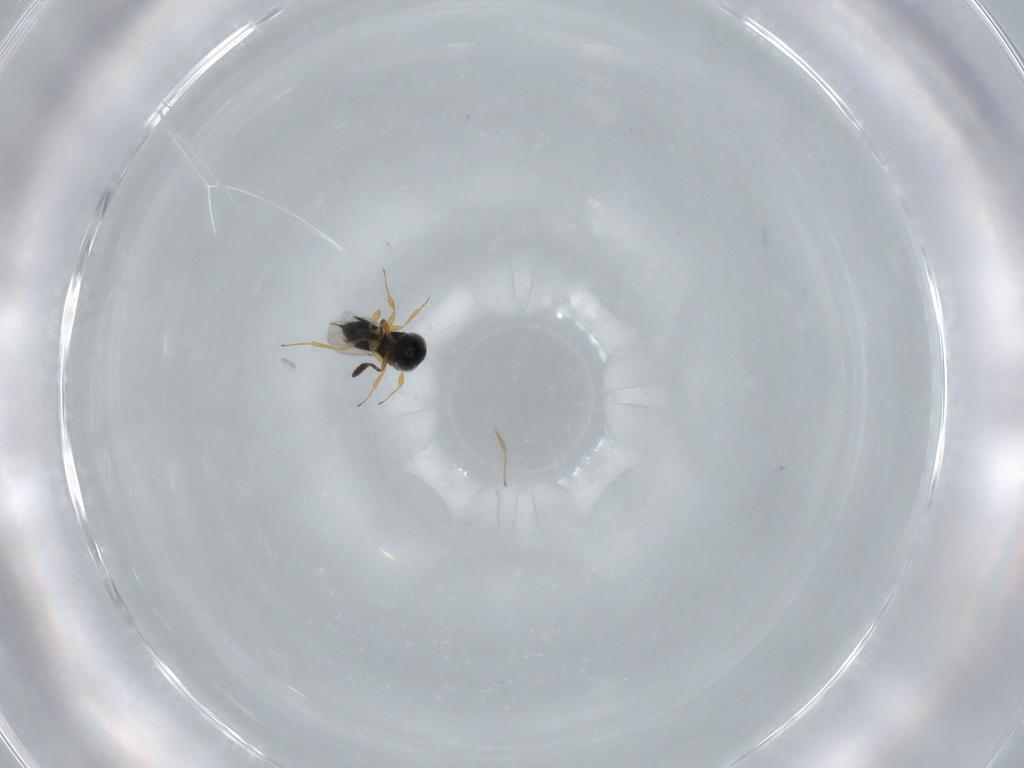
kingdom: Animalia
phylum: Arthropoda
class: Insecta
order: Hymenoptera
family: Scelionidae
